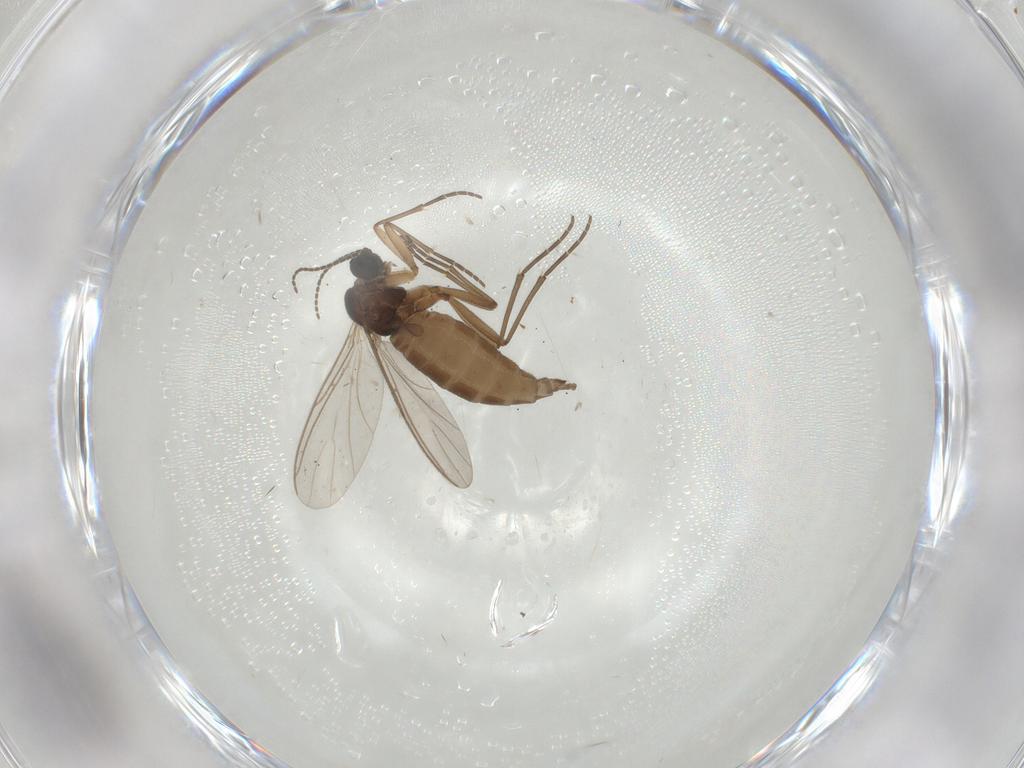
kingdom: Animalia
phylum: Arthropoda
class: Insecta
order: Diptera
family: Sciaridae
